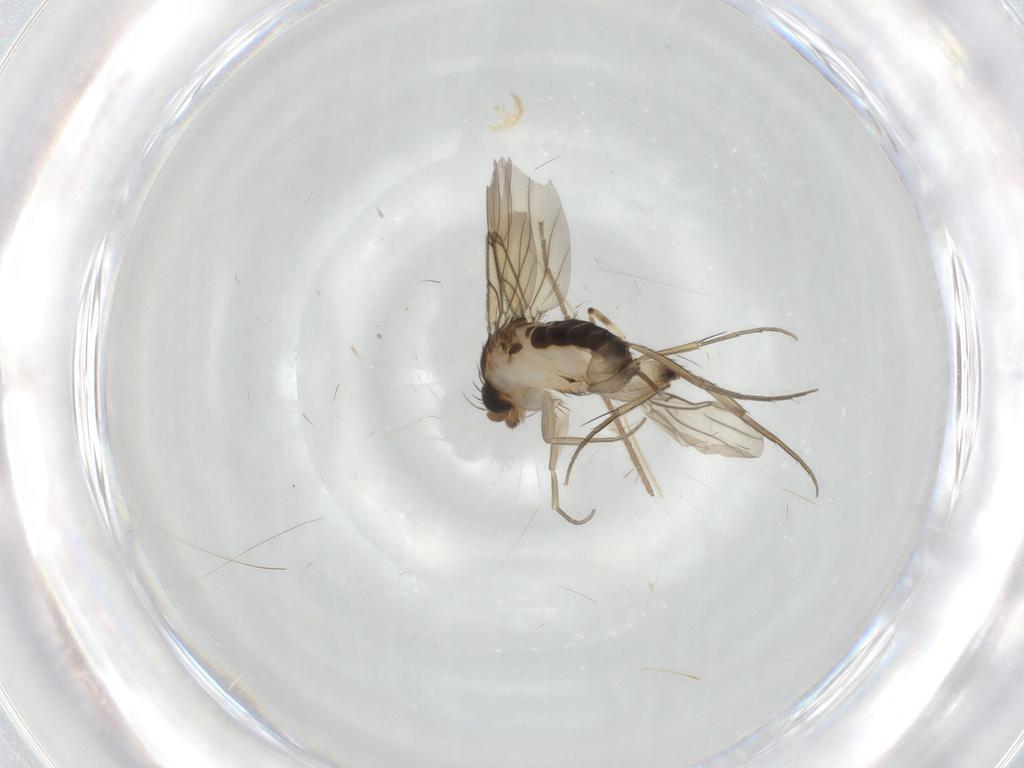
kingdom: Animalia
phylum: Arthropoda
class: Insecta
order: Diptera
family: Phoridae
